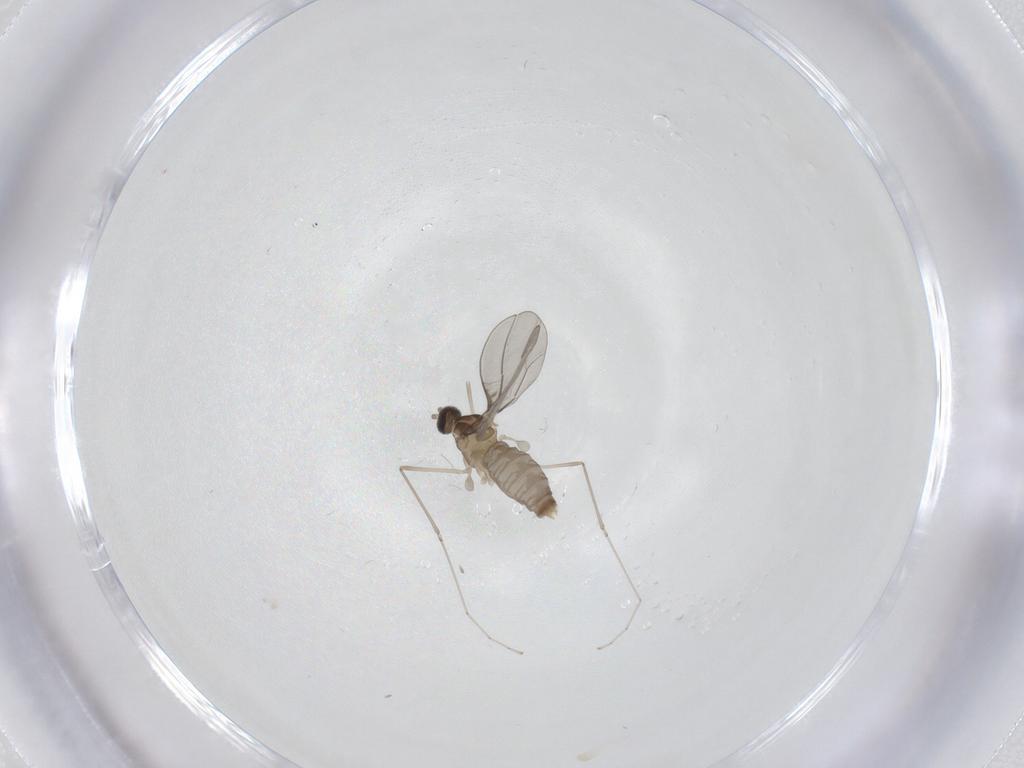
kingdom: Animalia
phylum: Arthropoda
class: Insecta
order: Diptera
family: Cecidomyiidae
